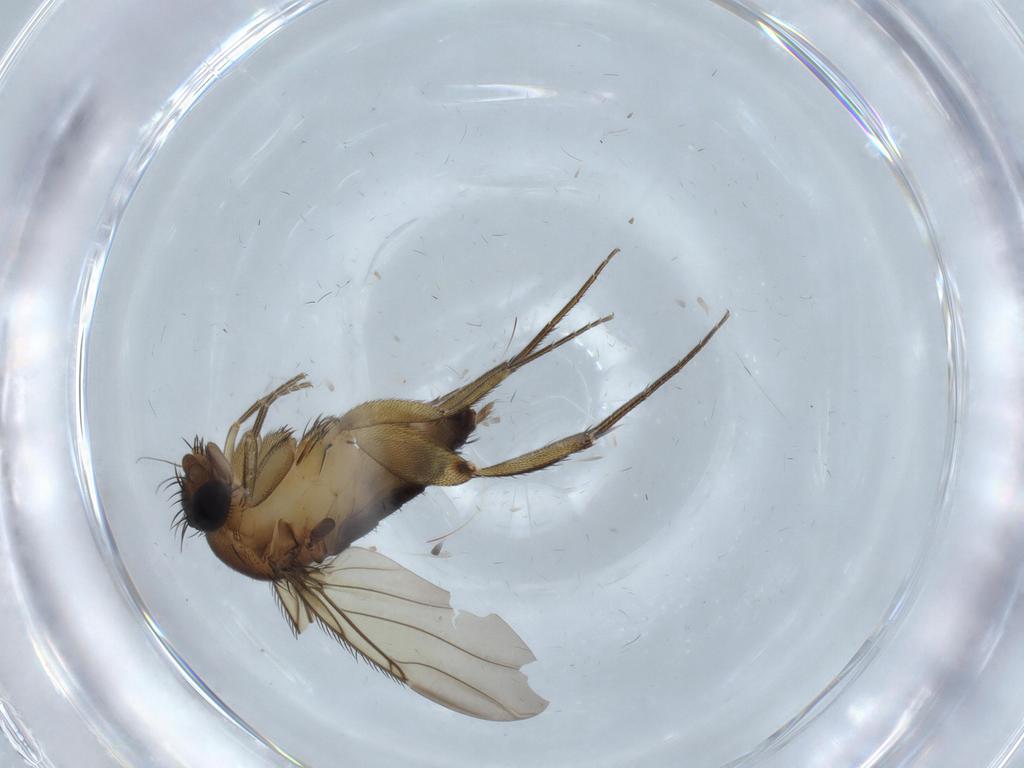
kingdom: Animalia
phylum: Arthropoda
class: Insecta
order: Diptera
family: Phoridae
